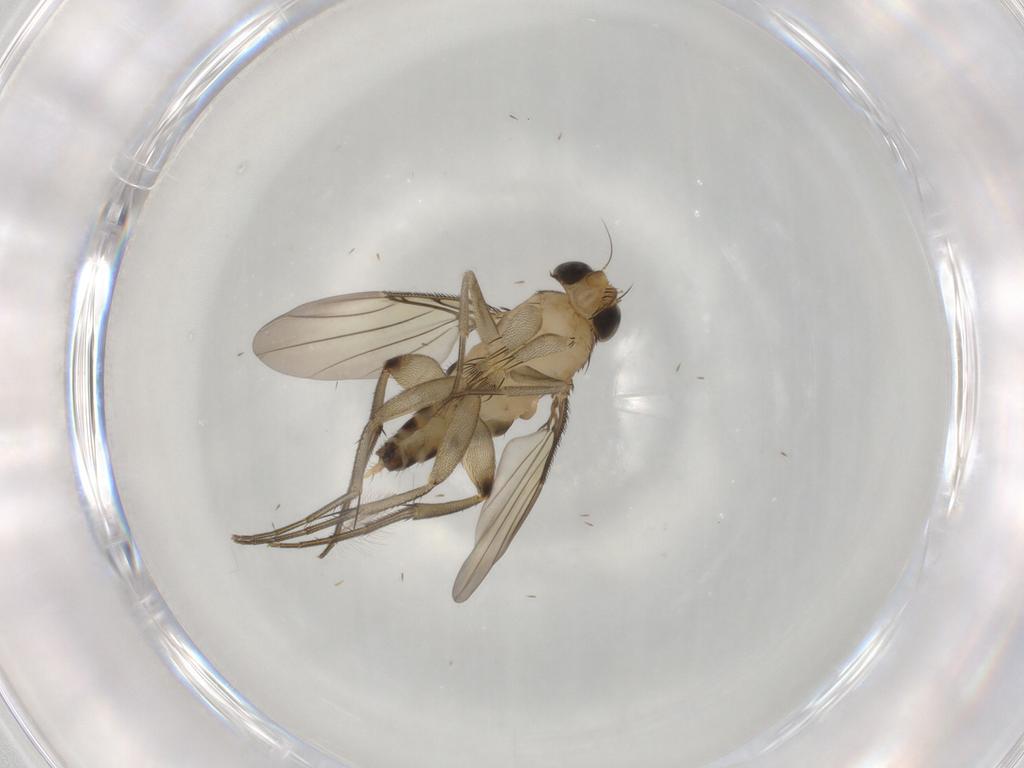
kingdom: Animalia
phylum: Arthropoda
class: Insecta
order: Diptera
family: Phoridae
